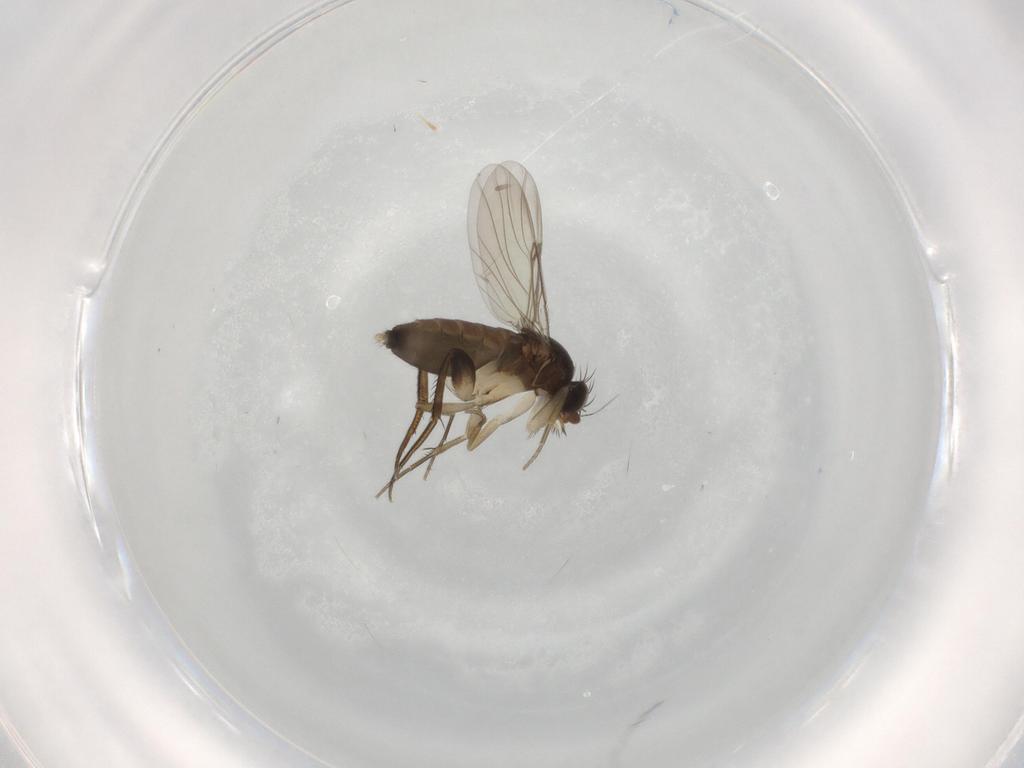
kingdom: Animalia
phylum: Arthropoda
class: Insecta
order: Diptera
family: Phoridae
